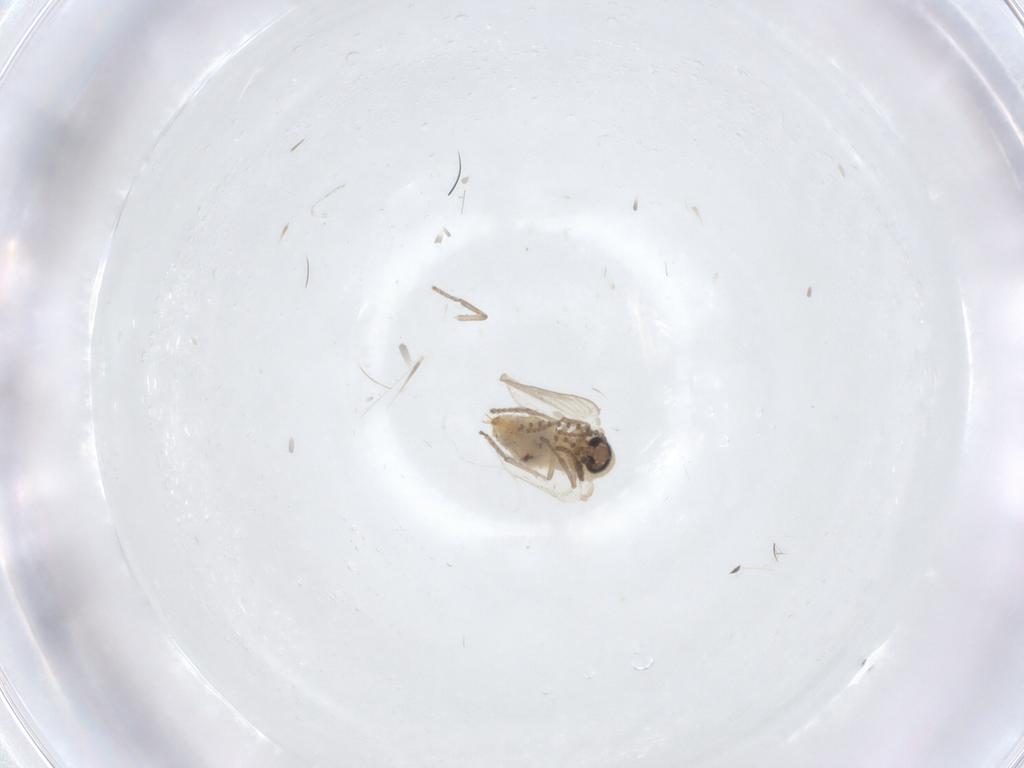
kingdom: Animalia
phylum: Arthropoda
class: Insecta
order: Diptera
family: Psychodidae
